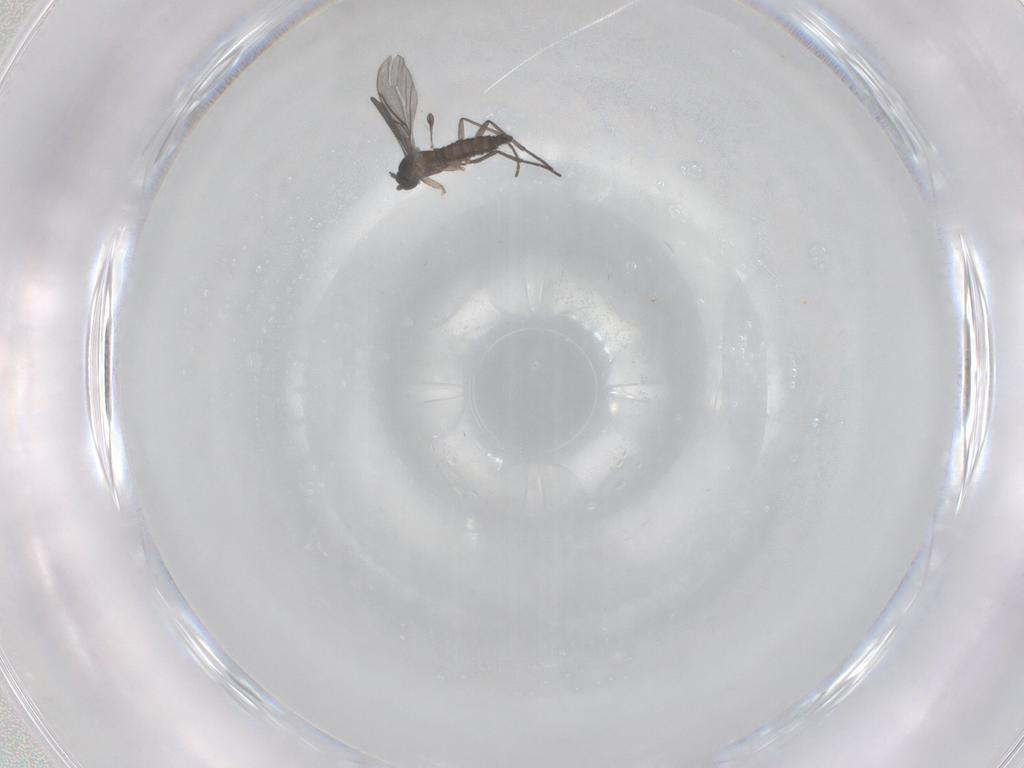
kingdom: Animalia
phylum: Arthropoda
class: Insecta
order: Diptera
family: Sciaridae
